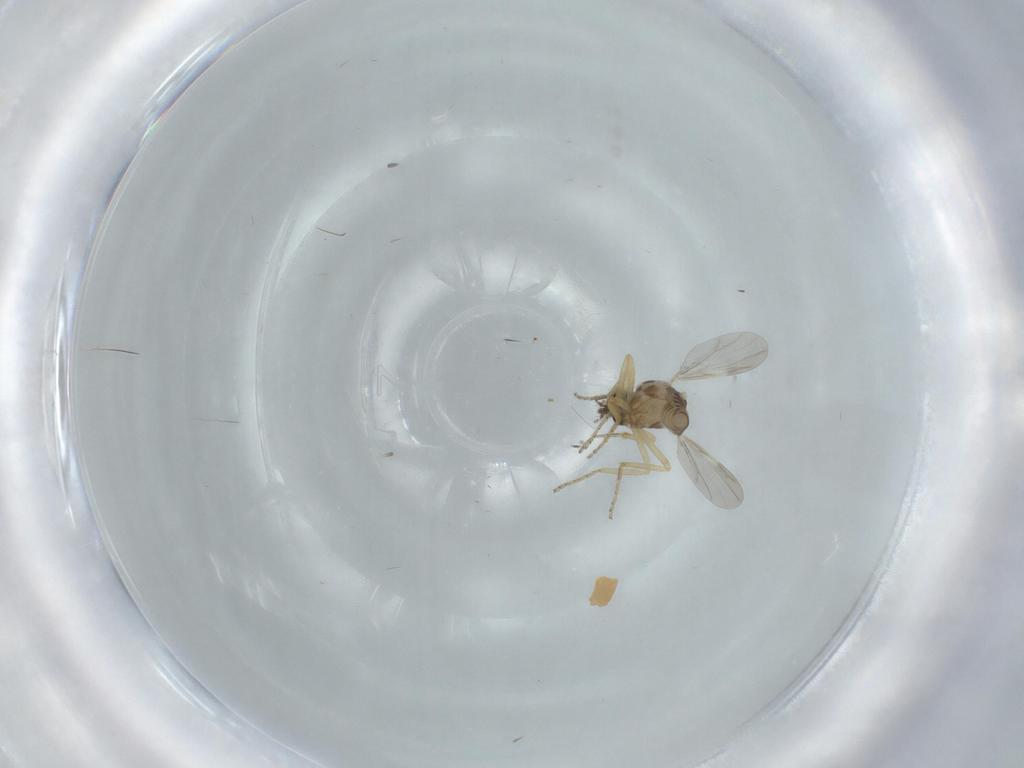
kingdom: Animalia
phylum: Arthropoda
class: Insecta
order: Diptera
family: Ceratopogonidae
